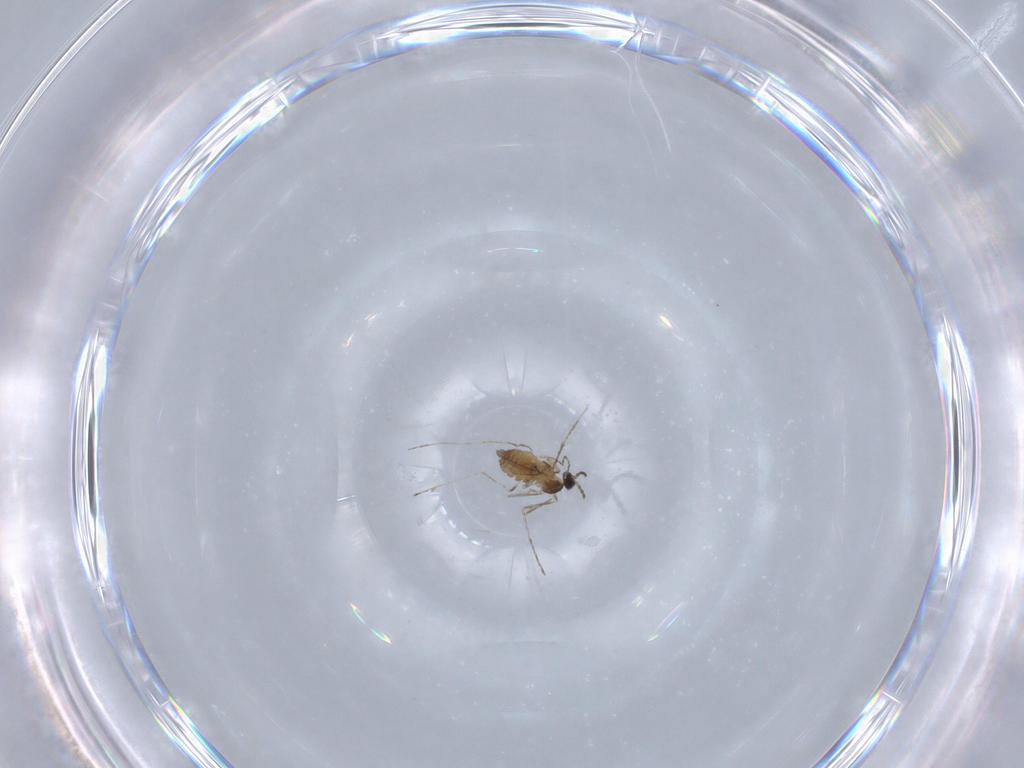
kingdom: Animalia
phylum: Arthropoda
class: Insecta
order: Diptera
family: Cecidomyiidae
